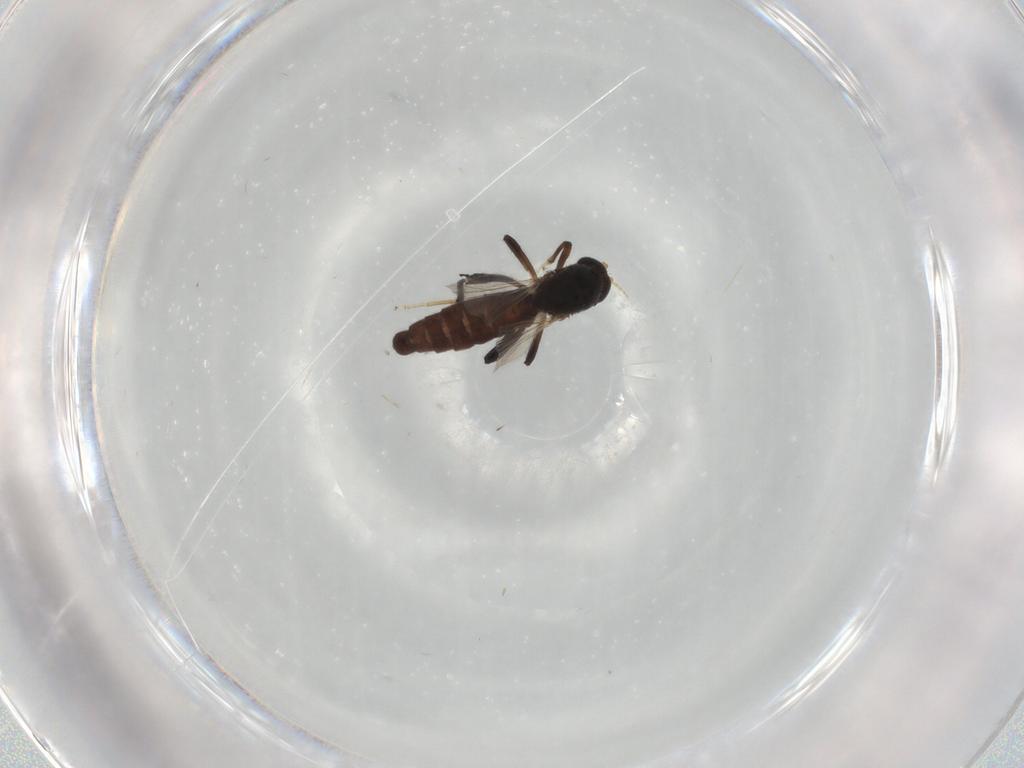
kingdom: Animalia
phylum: Arthropoda
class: Insecta
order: Diptera
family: Ceratopogonidae
